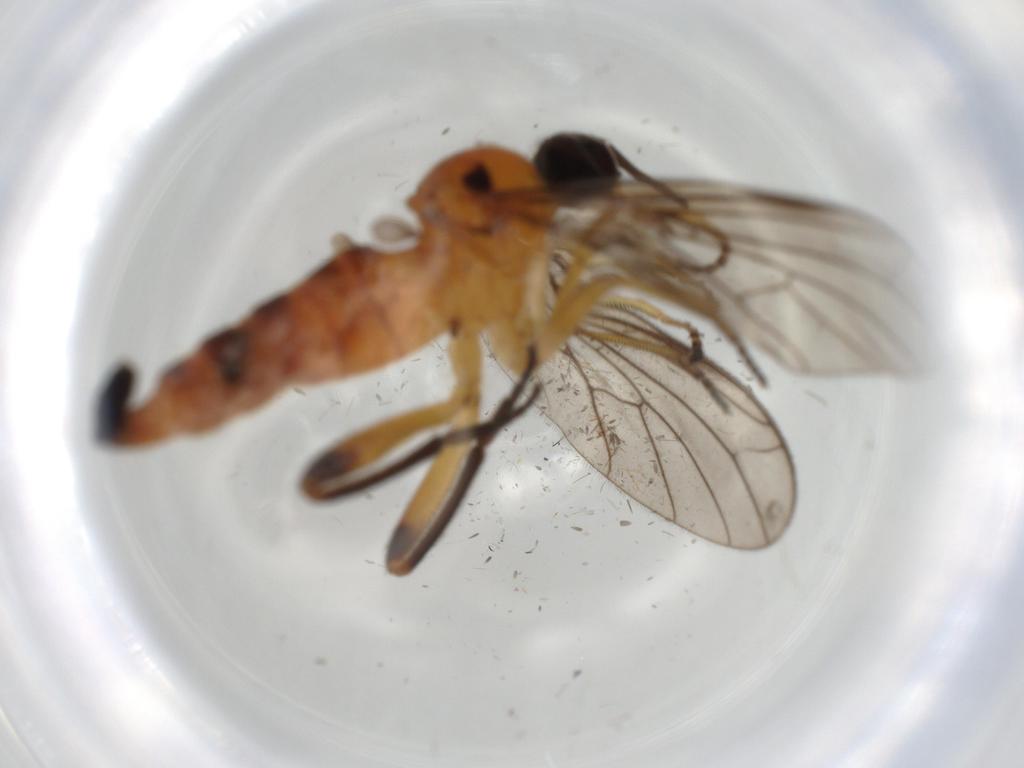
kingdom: Animalia
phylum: Arthropoda
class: Insecta
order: Diptera
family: Empididae
